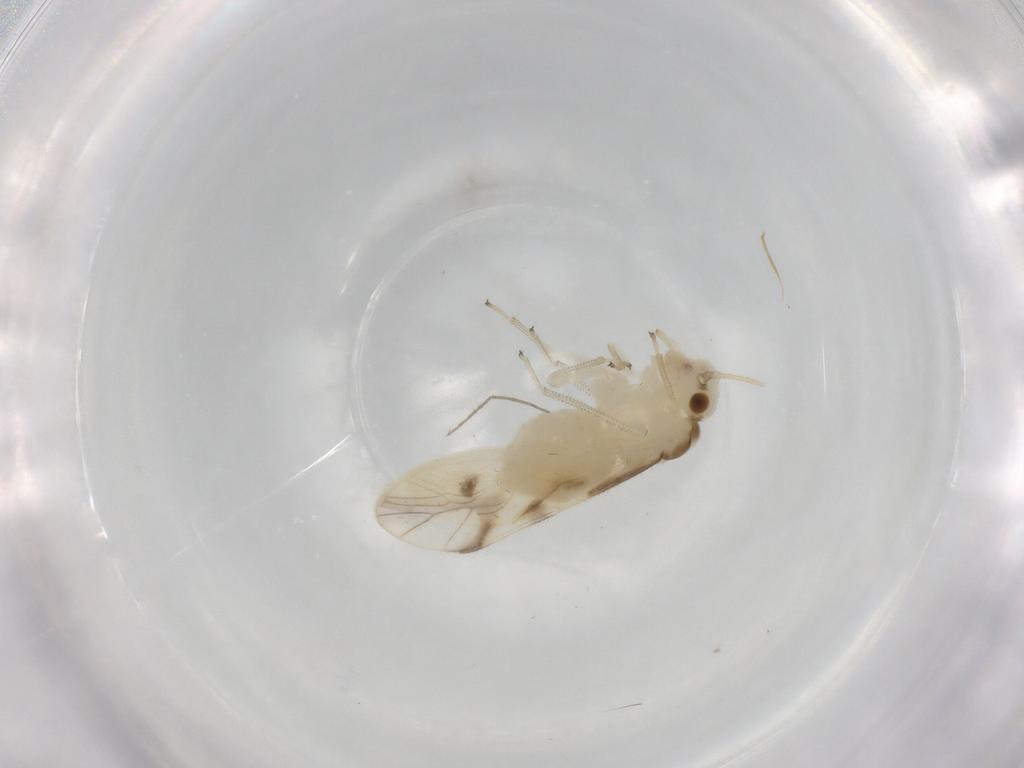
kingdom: Animalia
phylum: Arthropoda
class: Insecta
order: Psocodea
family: Caeciliusidae
